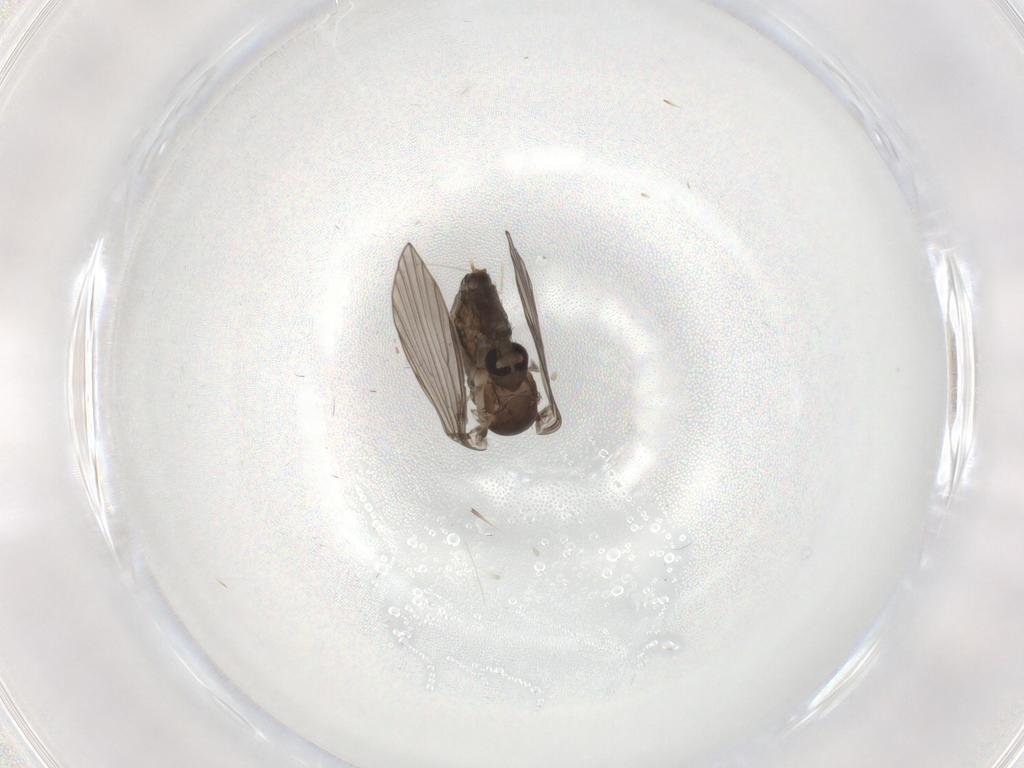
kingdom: Animalia
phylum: Arthropoda
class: Insecta
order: Diptera
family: Psychodidae
